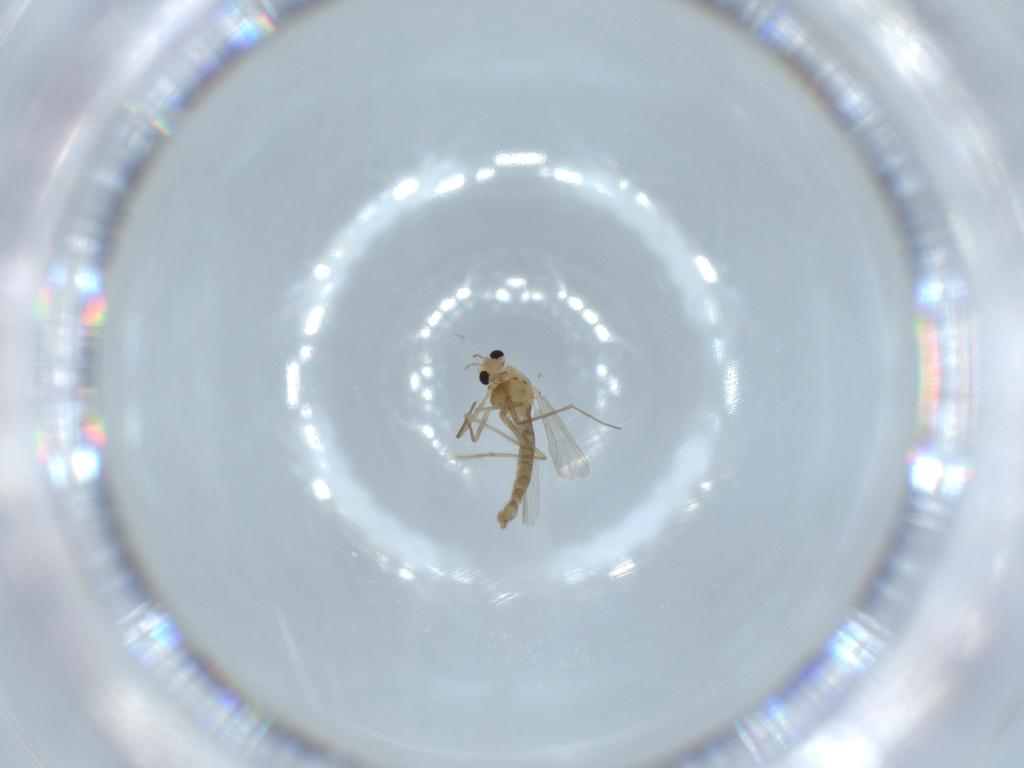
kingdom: Animalia
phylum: Arthropoda
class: Insecta
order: Diptera
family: Chironomidae
